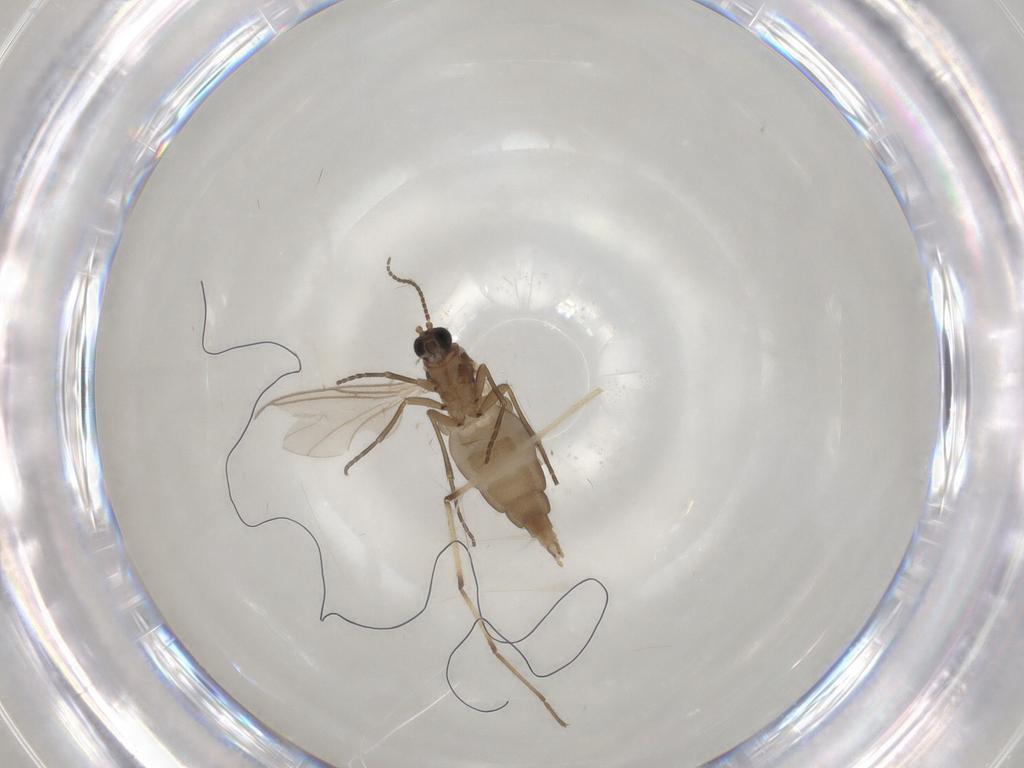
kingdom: Animalia
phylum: Arthropoda
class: Insecta
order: Diptera
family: Sciaridae
